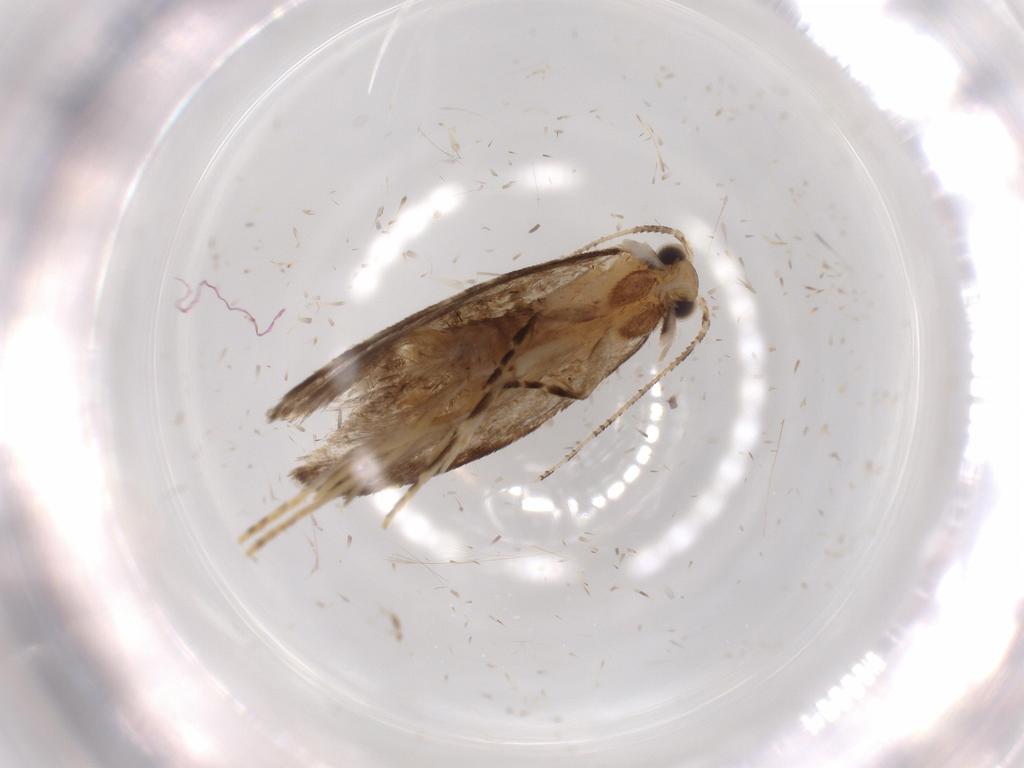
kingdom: Animalia
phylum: Arthropoda
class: Insecta
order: Lepidoptera
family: Tineidae
